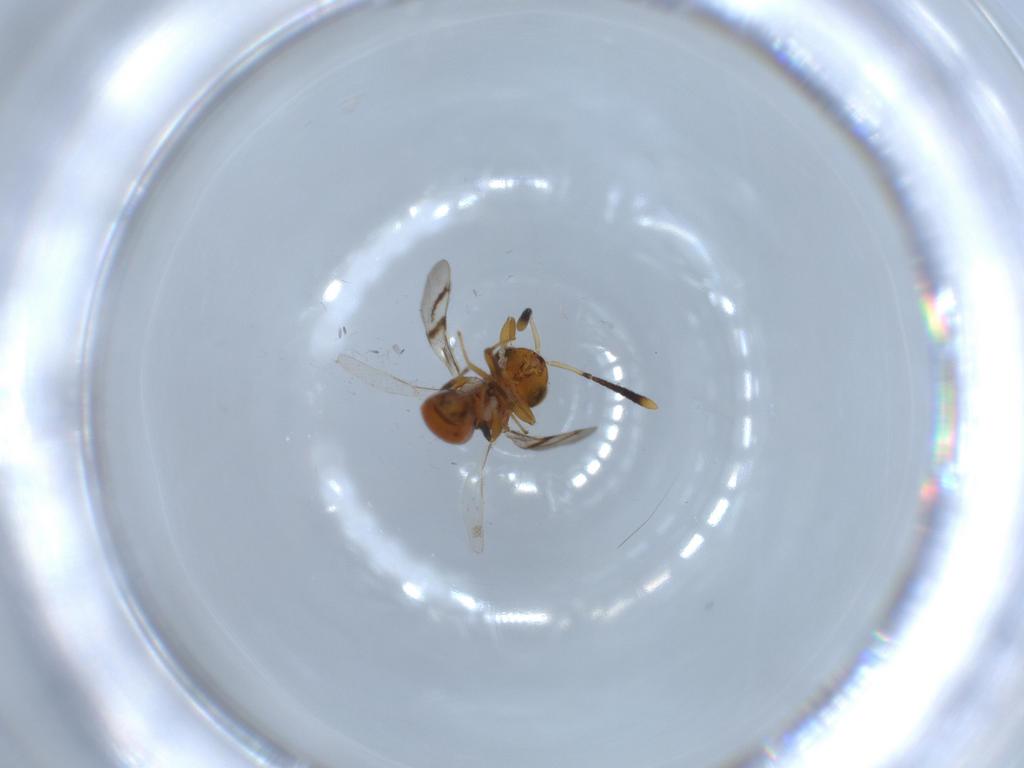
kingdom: Animalia
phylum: Arthropoda
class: Insecta
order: Hymenoptera
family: Diparidae
